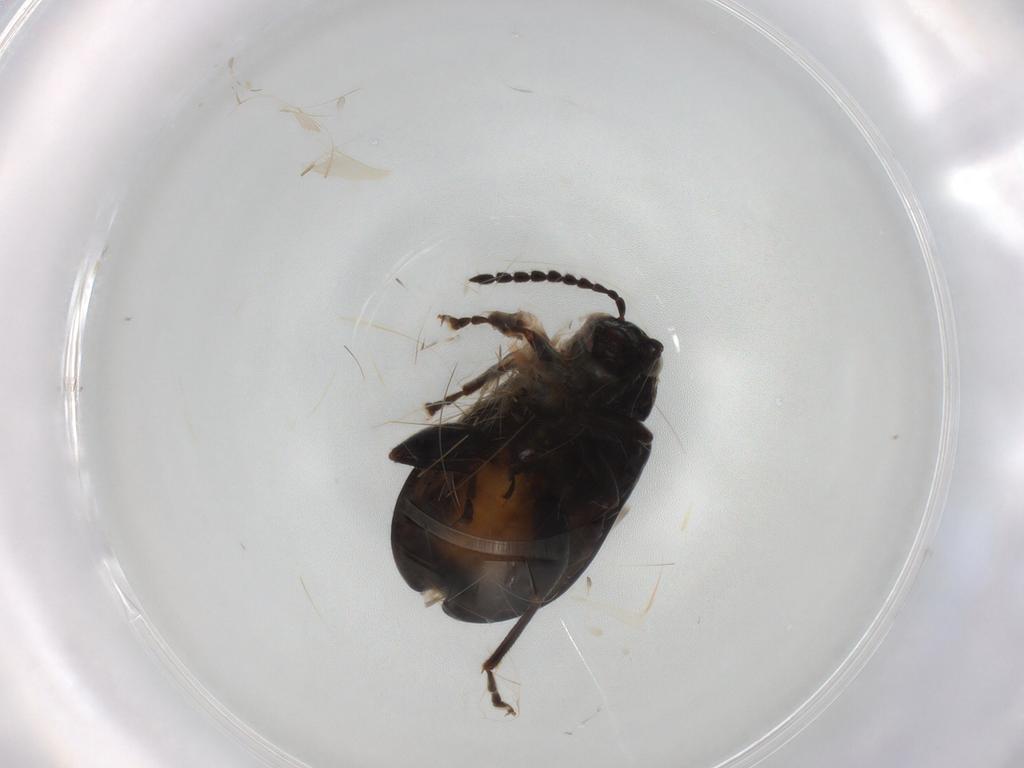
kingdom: Animalia
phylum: Arthropoda
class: Insecta
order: Coleoptera
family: Chrysomelidae
